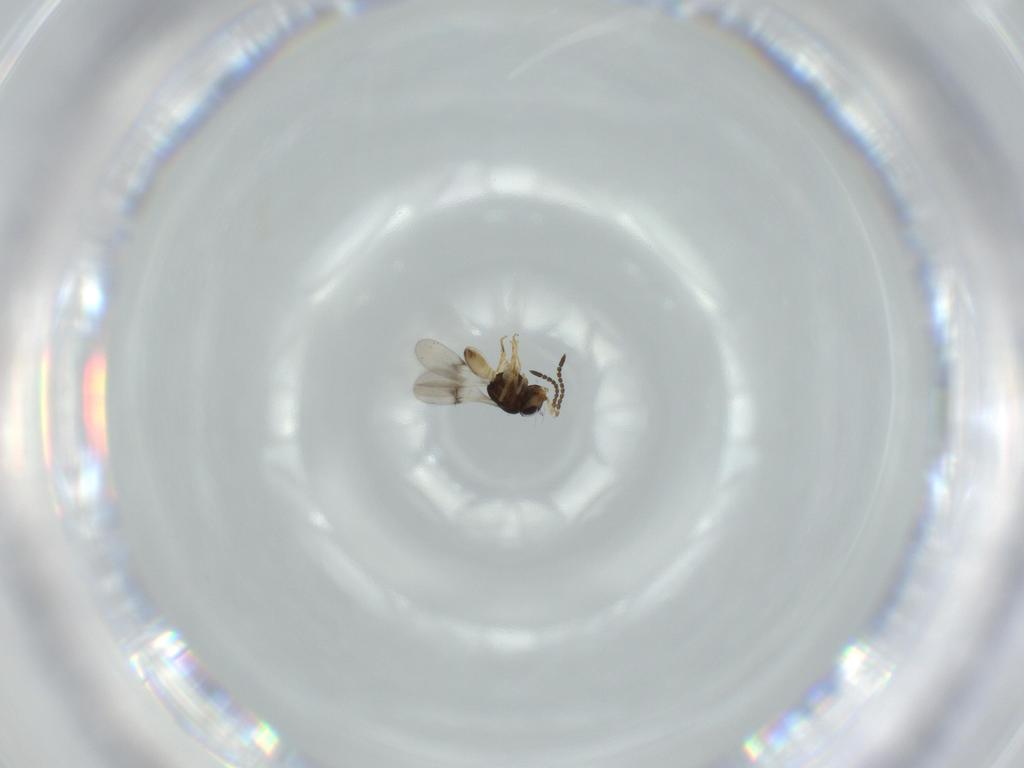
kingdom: Animalia
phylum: Arthropoda
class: Insecta
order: Hymenoptera
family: Scelionidae
